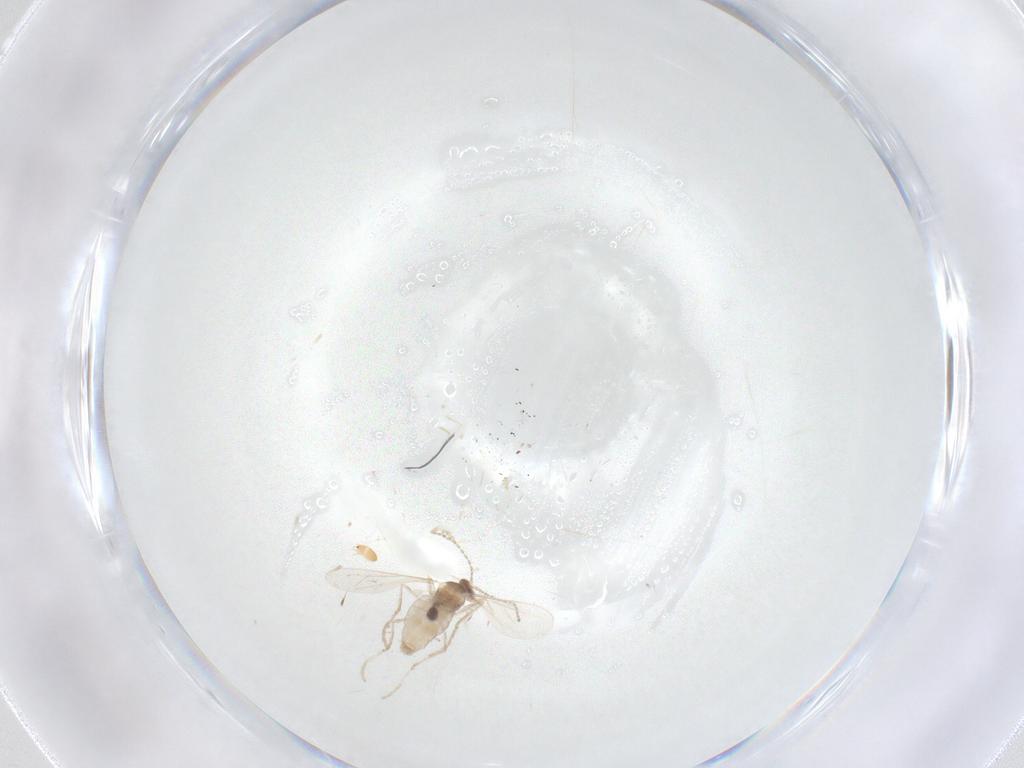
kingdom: Animalia
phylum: Arthropoda
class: Insecta
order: Diptera
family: Cecidomyiidae
